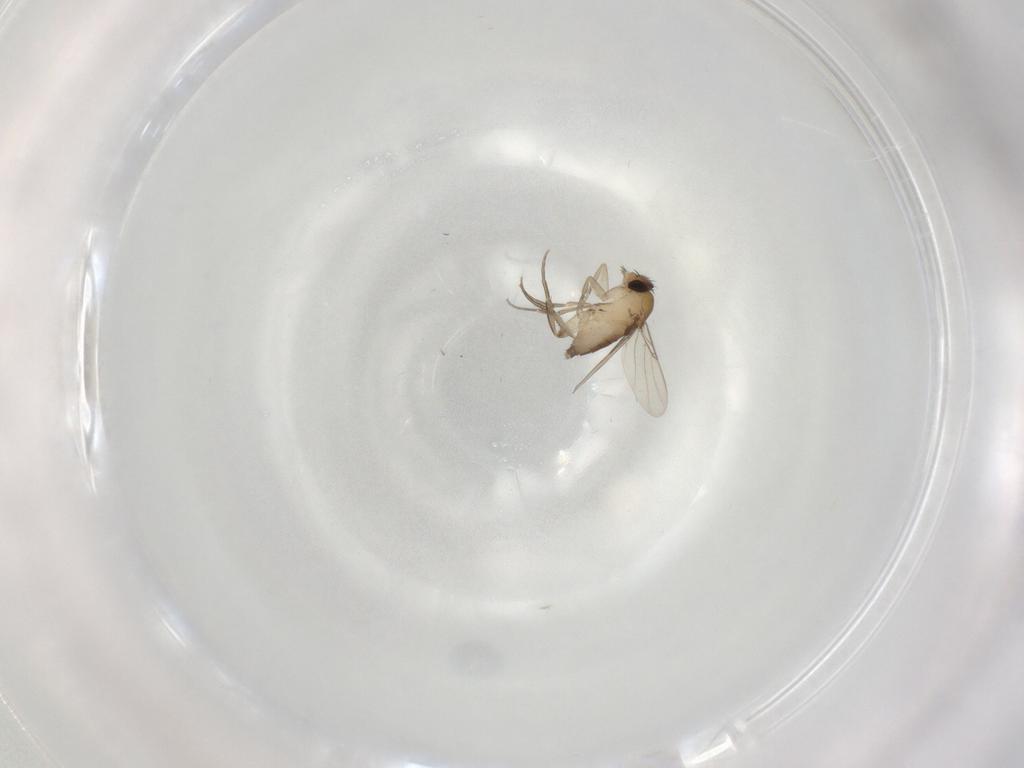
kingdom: Animalia
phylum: Arthropoda
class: Insecta
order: Diptera
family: Phoridae
